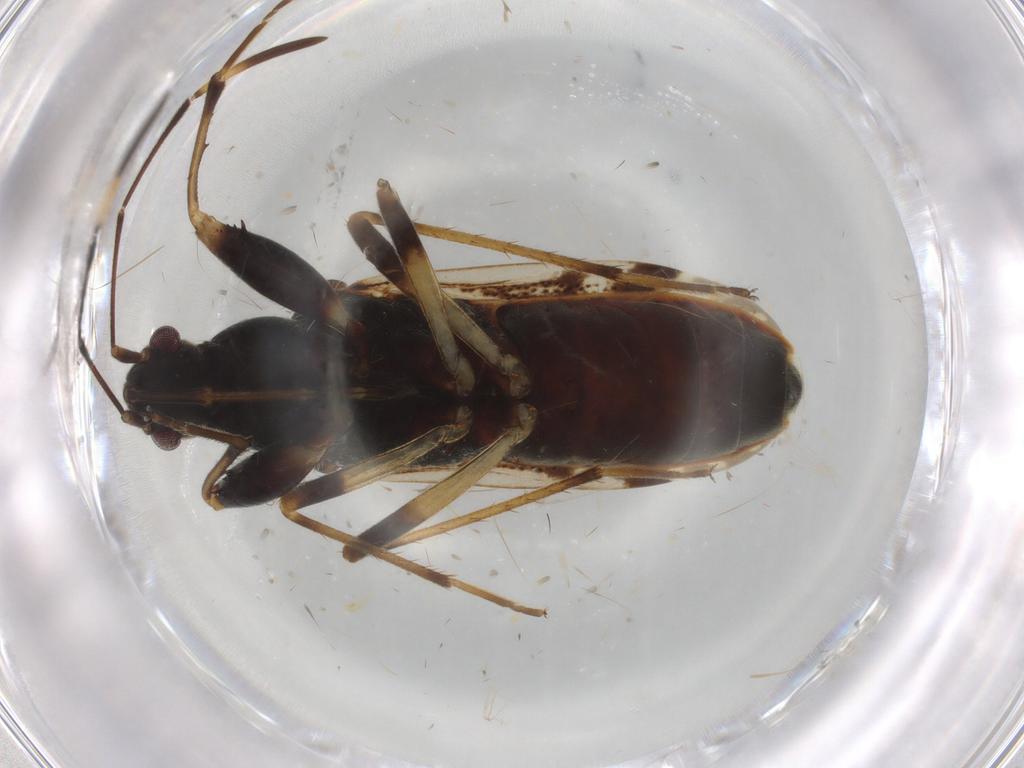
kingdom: Animalia
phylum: Arthropoda
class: Insecta
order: Hemiptera
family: Rhyparochromidae
